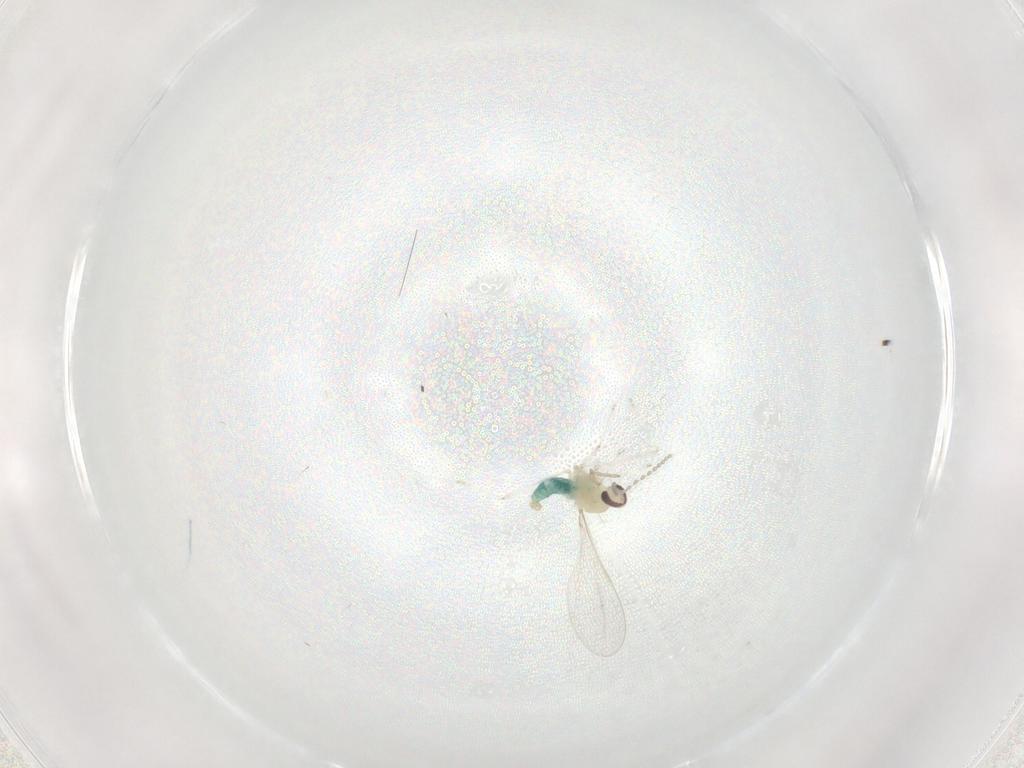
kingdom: Animalia
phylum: Arthropoda
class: Insecta
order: Diptera
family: Cecidomyiidae
